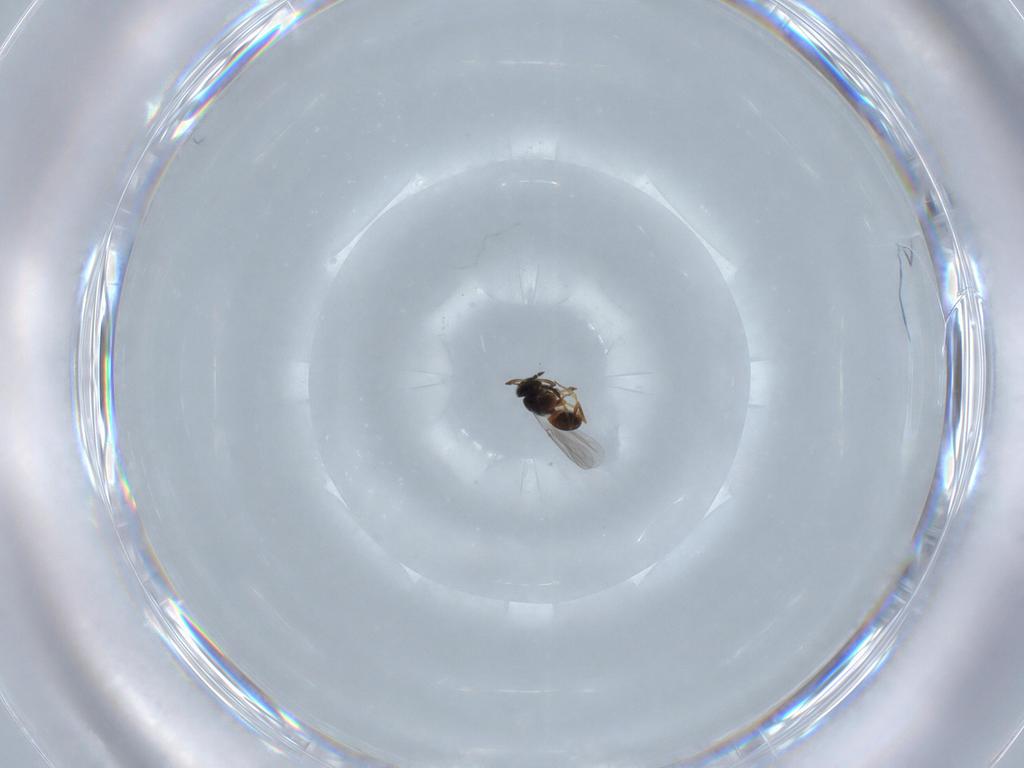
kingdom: Animalia
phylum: Arthropoda
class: Insecta
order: Hymenoptera
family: Platygastridae
